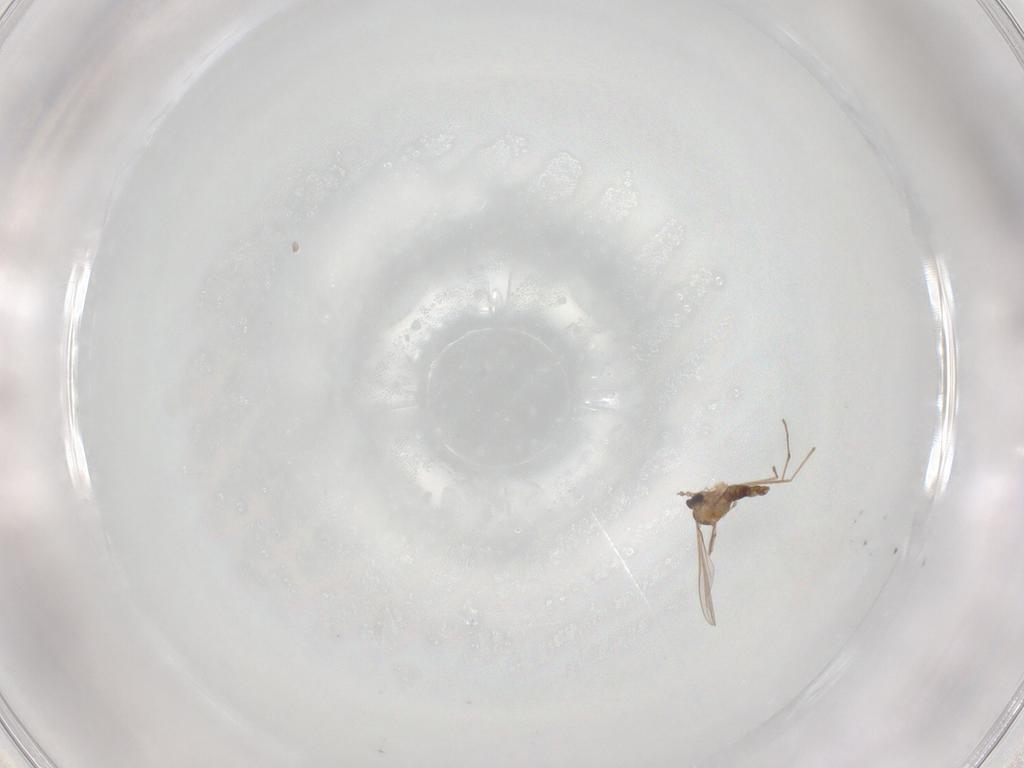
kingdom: Animalia
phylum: Arthropoda
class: Insecta
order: Diptera
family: Cecidomyiidae
